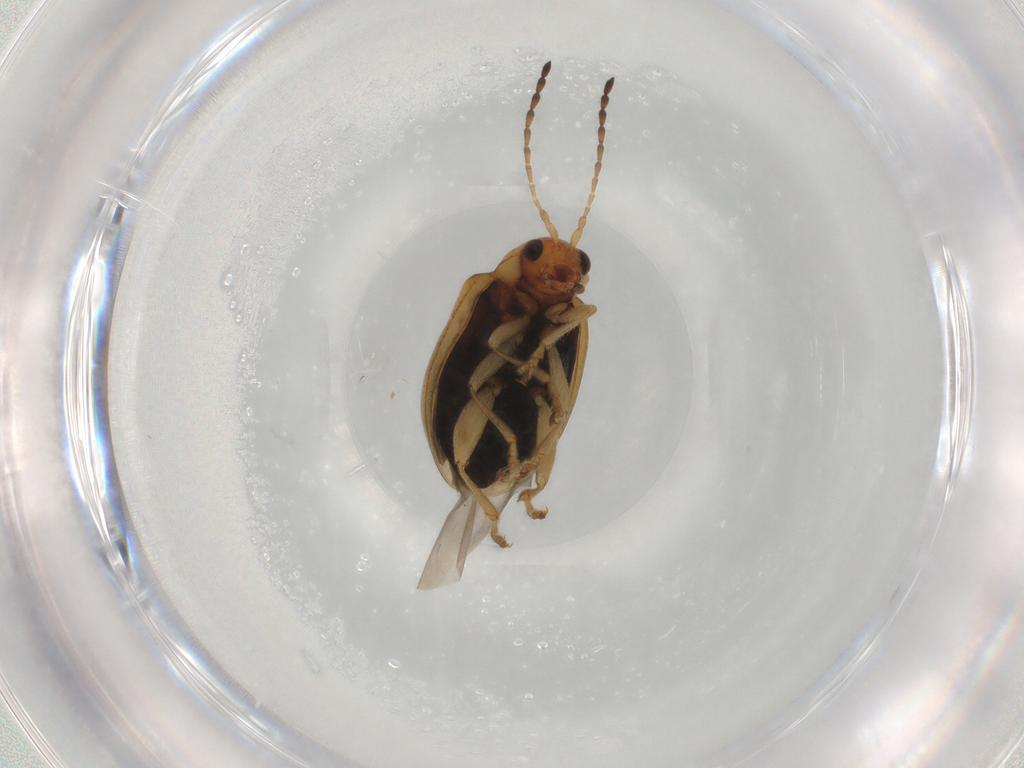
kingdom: Animalia
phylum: Arthropoda
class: Insecta
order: Coleoptera
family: Chrysomelidae
